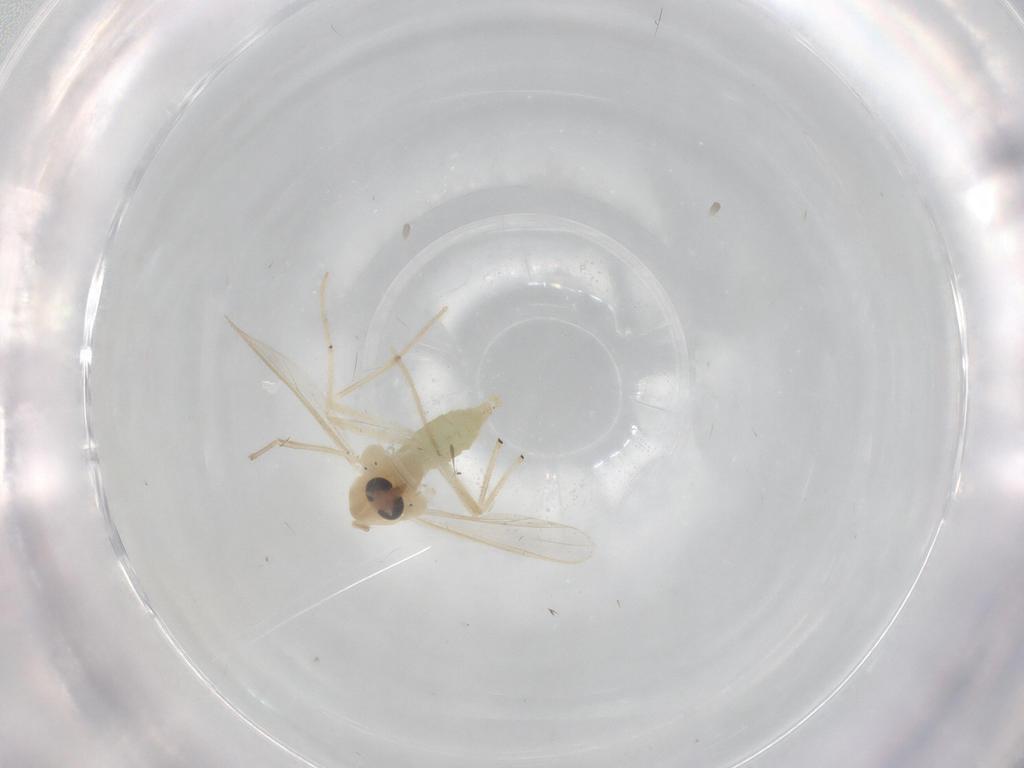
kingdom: Animalia
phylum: Arthropoda
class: Insecta
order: Diptera
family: Chironomidae
